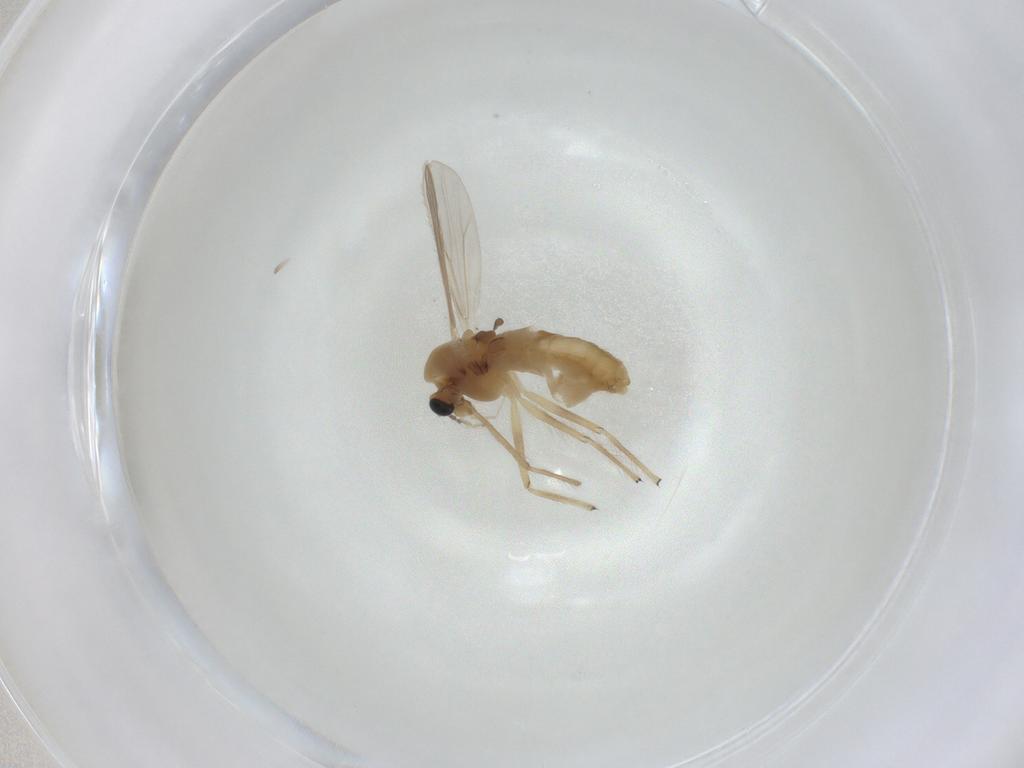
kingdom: Animalia
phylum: Arthropoda
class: Insecta
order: Diptera
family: Chironomidae
